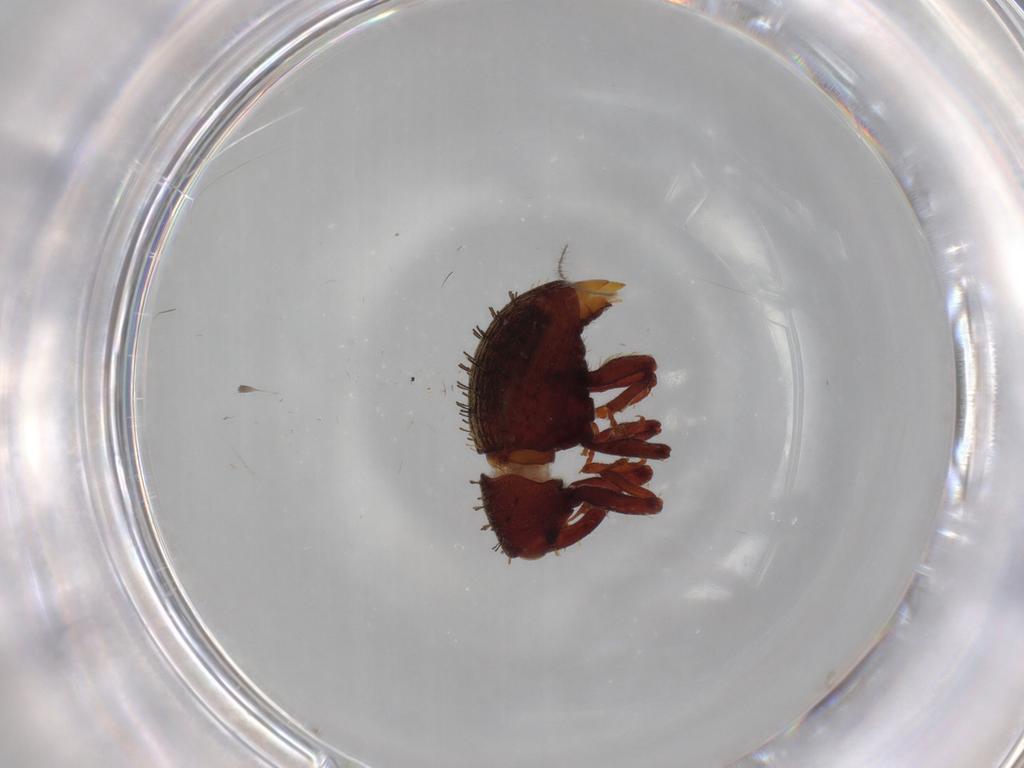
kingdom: Animalia
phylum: Arthropoda
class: Insecta
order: Coleoptera
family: Curculionidae
